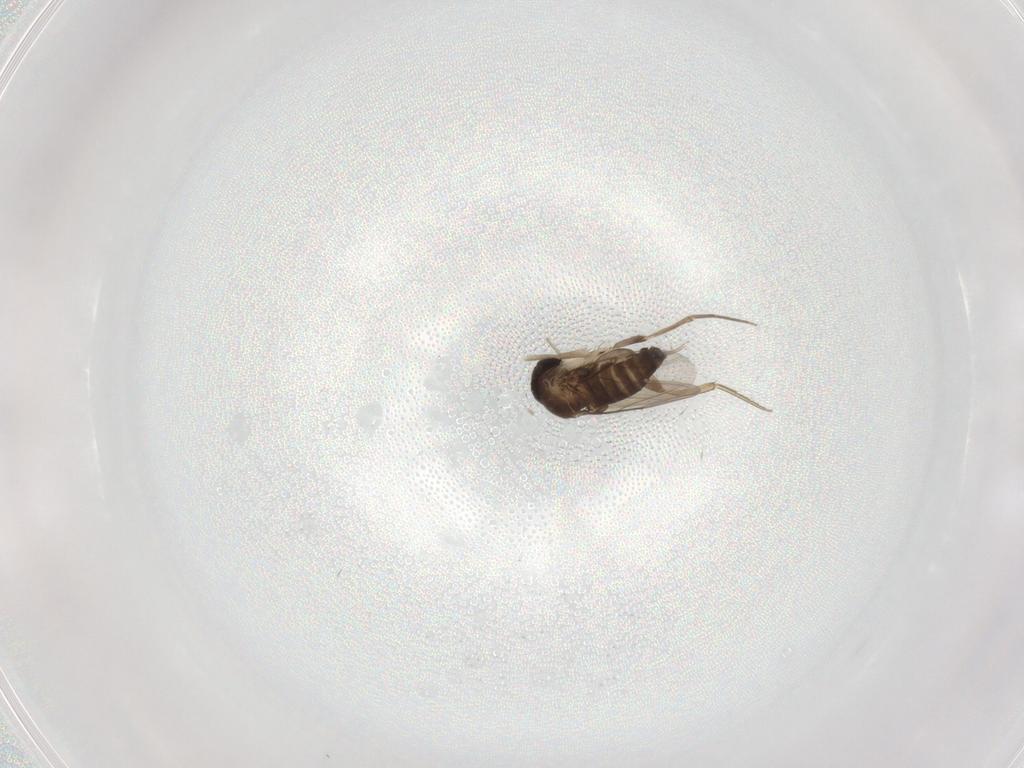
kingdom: Animalia
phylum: Arthropoda
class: Insecta
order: Diptera
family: Phoridae
